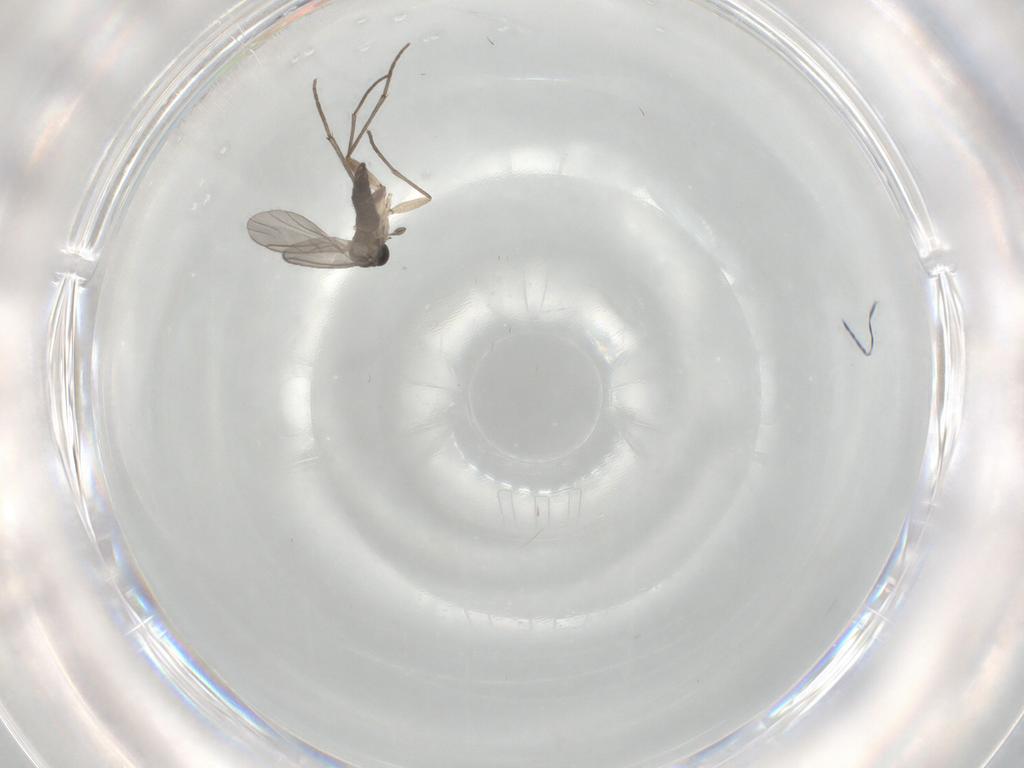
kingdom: Animalia
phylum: Arthropoda
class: Insecta
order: Diptera
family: Sciaridae
